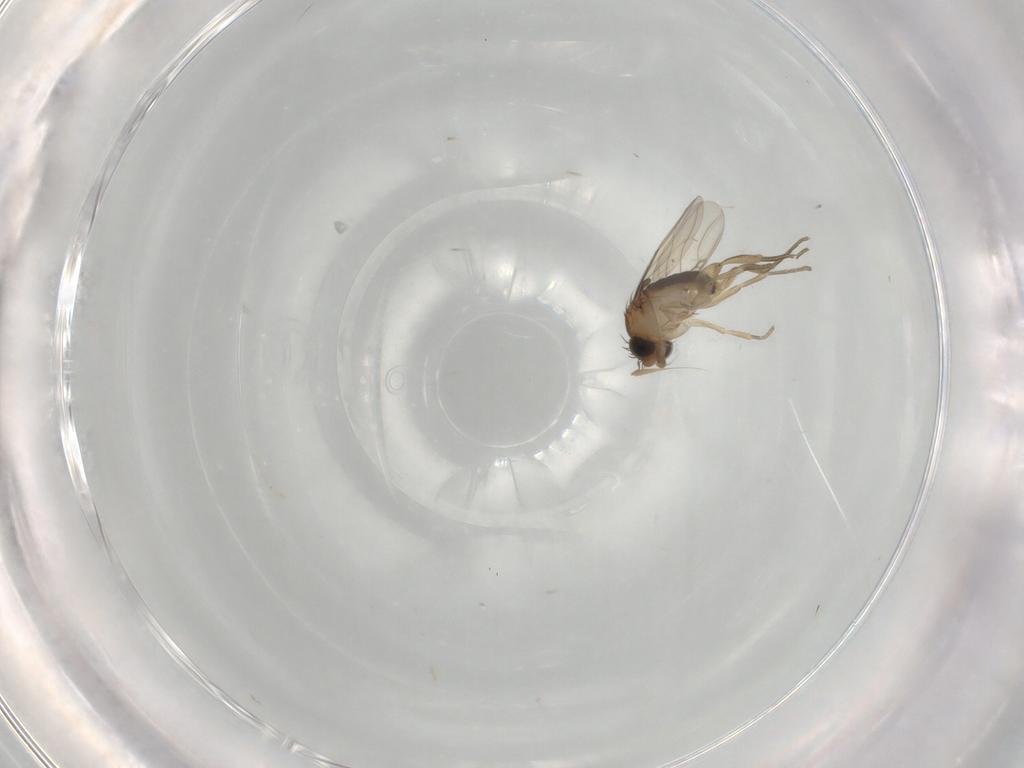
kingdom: Animalia
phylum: Arthropoda
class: Insecta
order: Diptera
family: Phoridae
